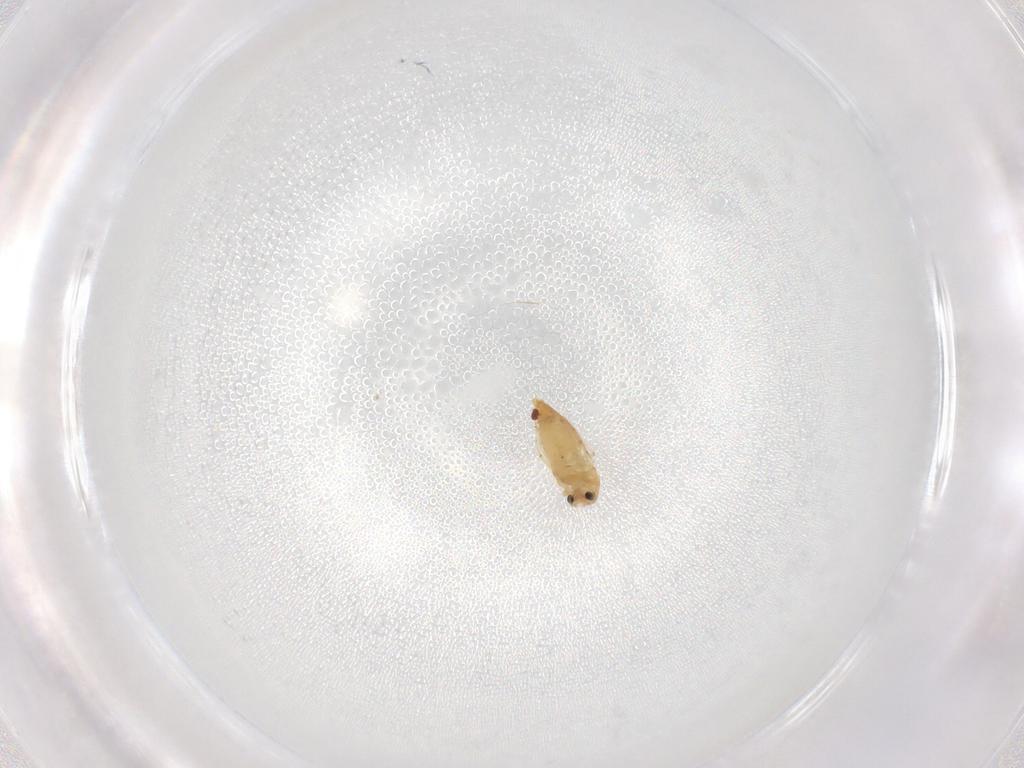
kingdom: Animalia
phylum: Arthropoda
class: Insecta
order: Diptera
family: Chironomidae
